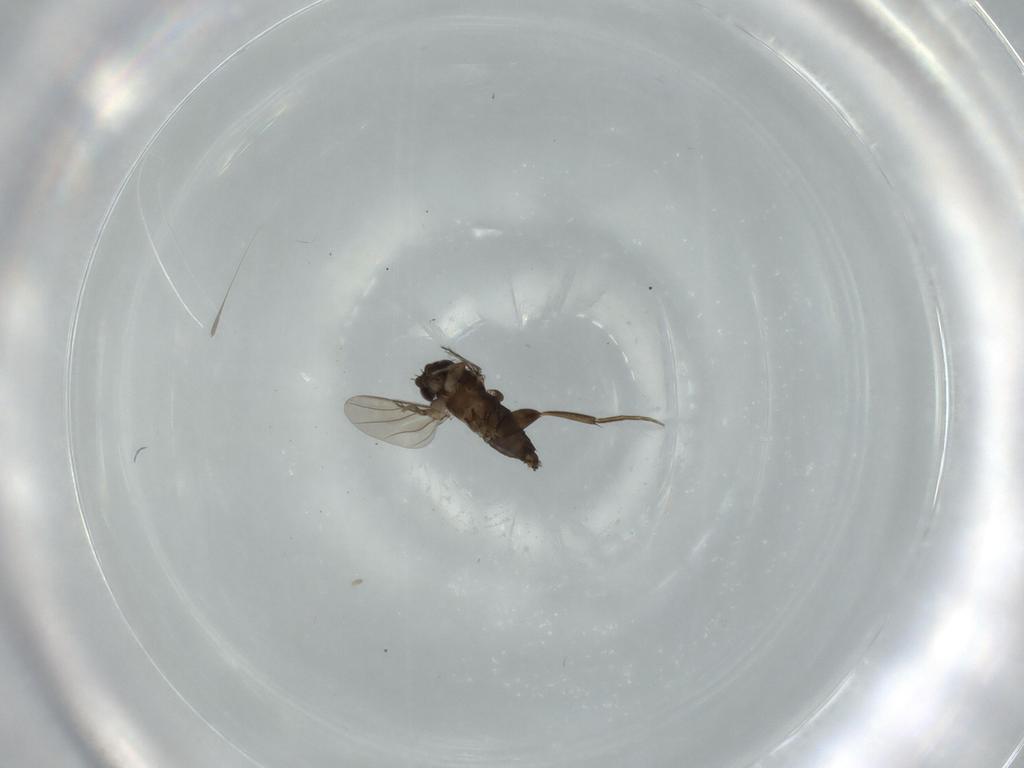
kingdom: Animalia
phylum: Arthropoda
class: Insecta
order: Diptera
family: Phoridae
